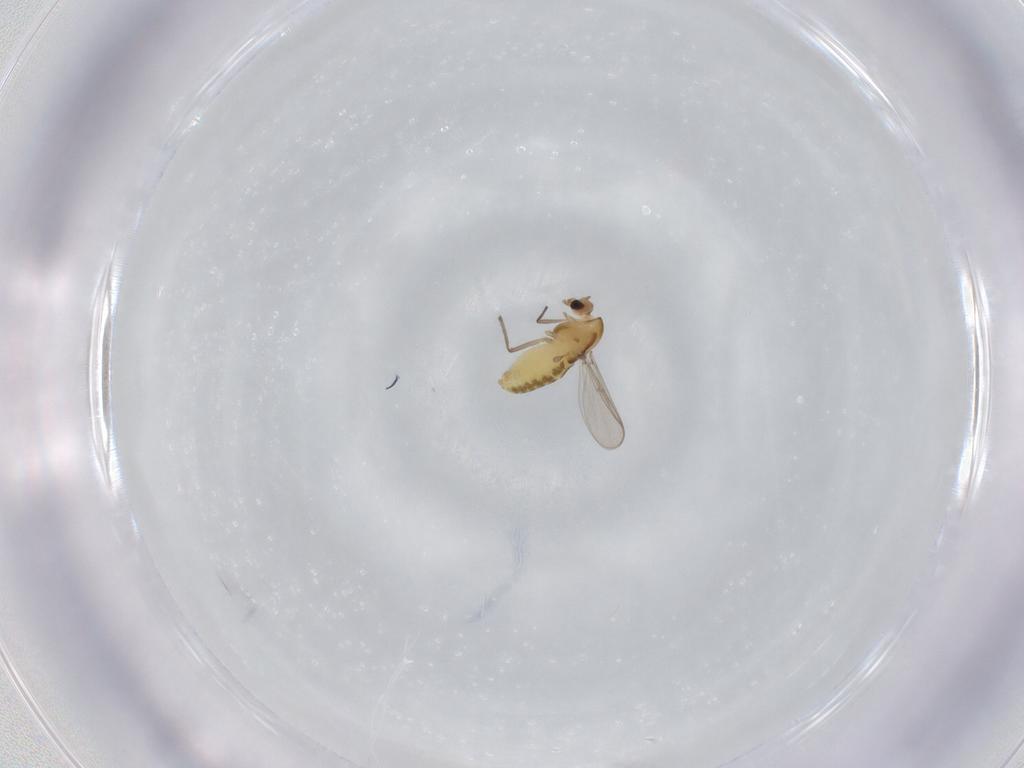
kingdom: Animalia
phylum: Arthropoda
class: Insecta
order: Diptera
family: Chironomidae
